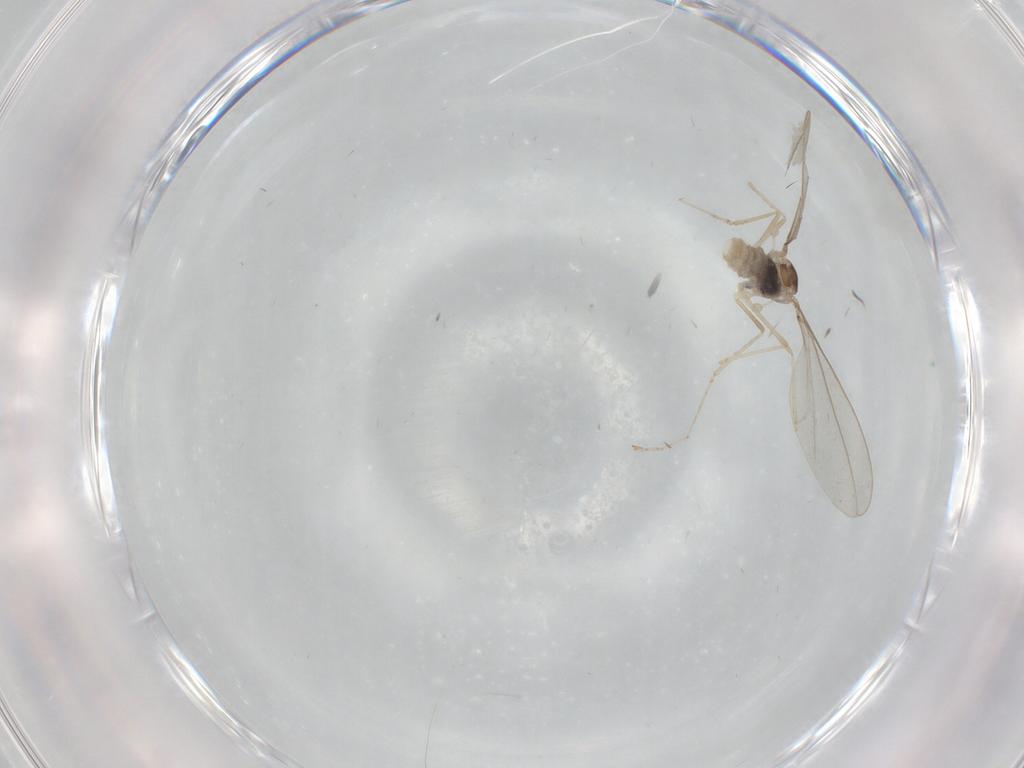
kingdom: Animalia
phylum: Arthropoda
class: Insecta
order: Diptera
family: Cecidomyiidae
